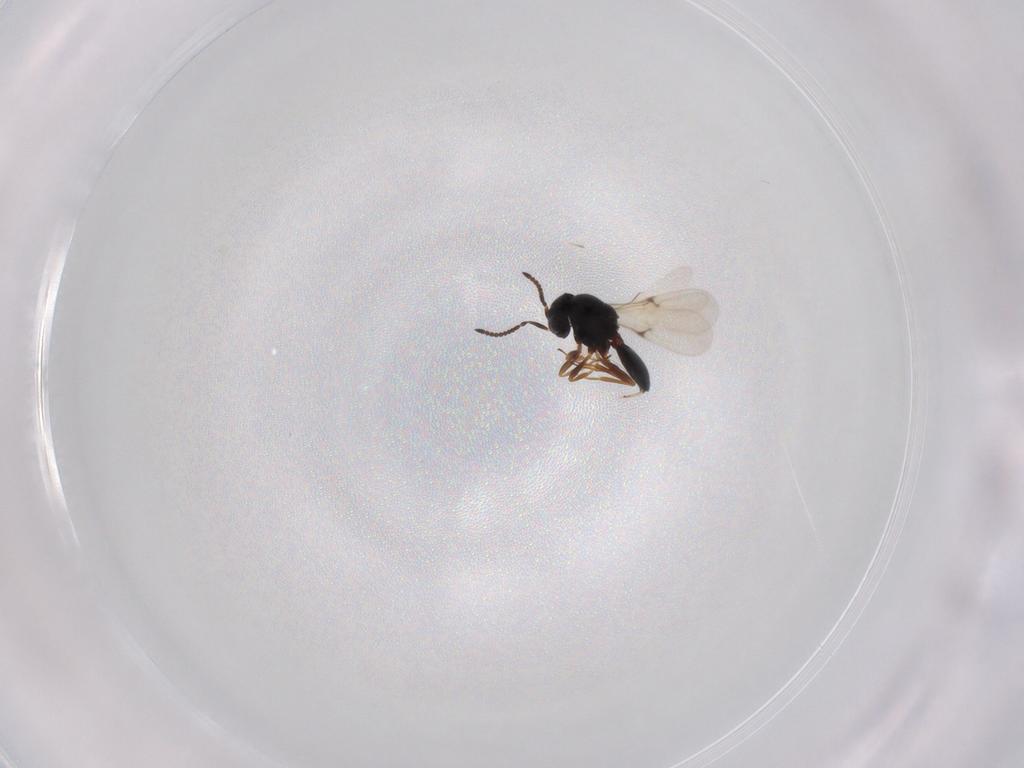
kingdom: Animalia
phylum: Arthropoda
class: Arachnida
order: Araneae
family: Pholcidae
